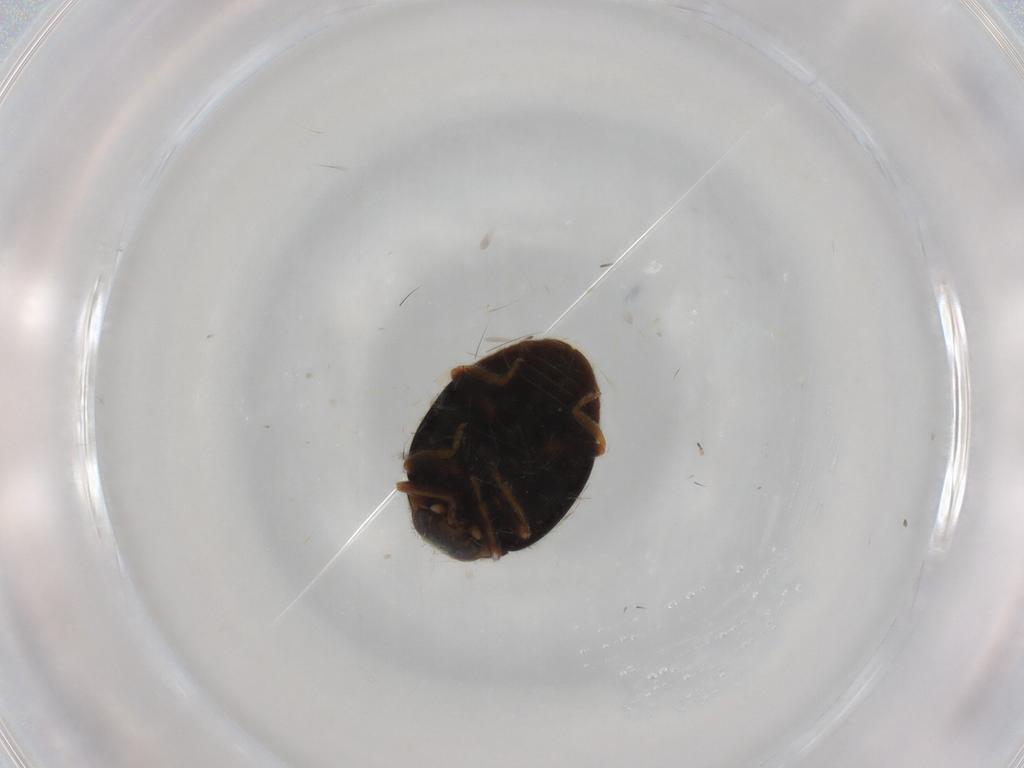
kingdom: Animalia
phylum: Arthropoda
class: Insecta
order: Coleoptera
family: Coccinellidae
